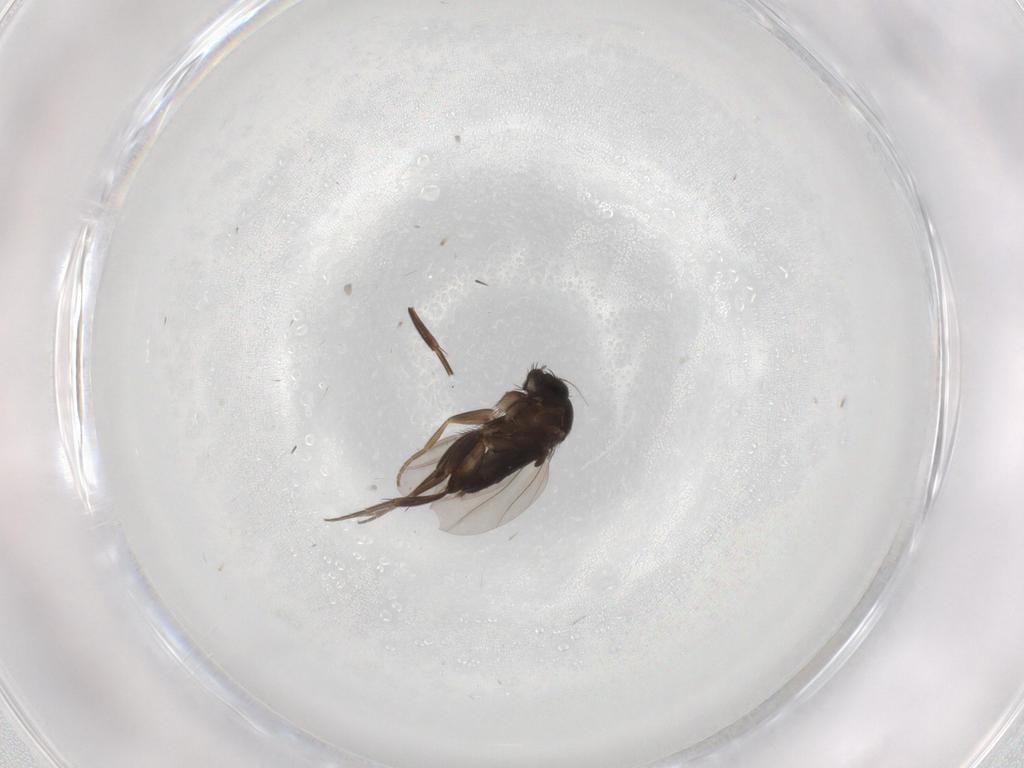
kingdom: Animalia
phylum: Arthropoda
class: Insecta
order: Diptera
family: Phoridae
